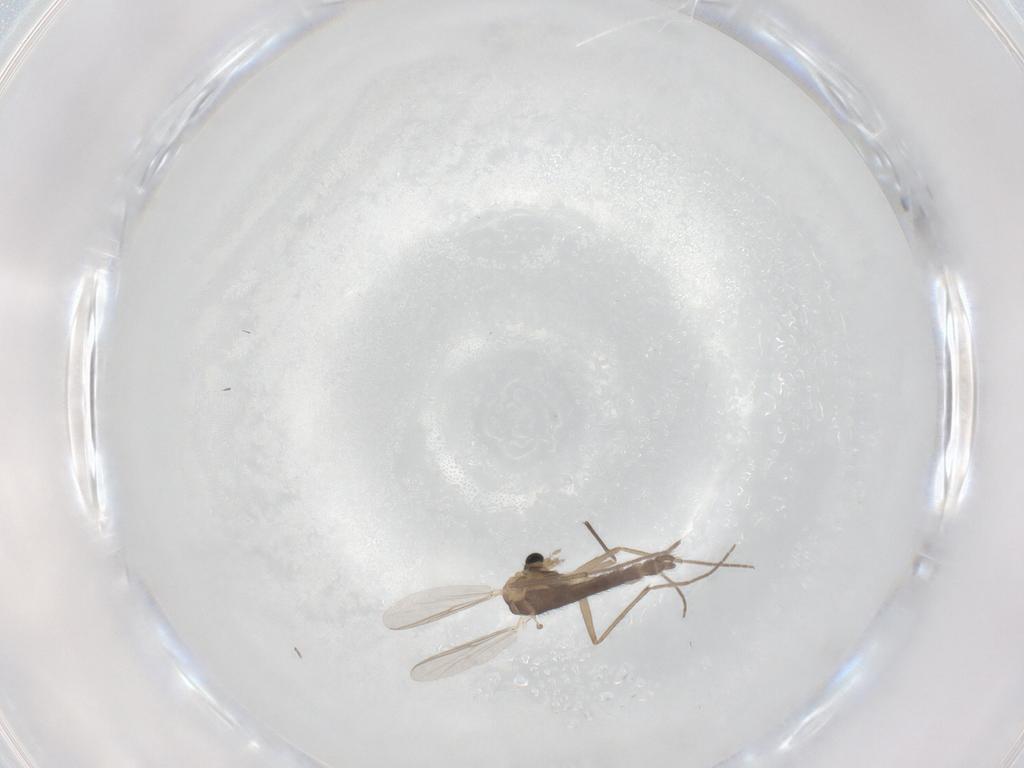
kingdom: Animalia
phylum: Arthropoda
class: Insecta
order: Diptera
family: Chironomidae
